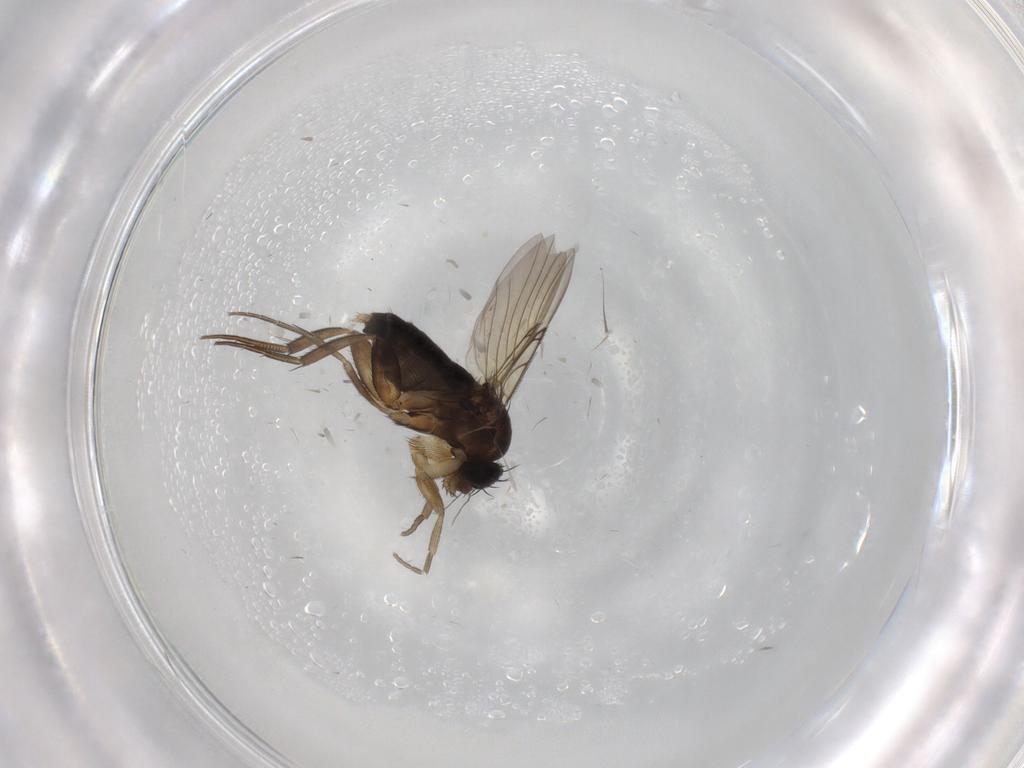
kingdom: Animalia
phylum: Arthropoda
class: Insecta
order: Diptera
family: Phoridae
